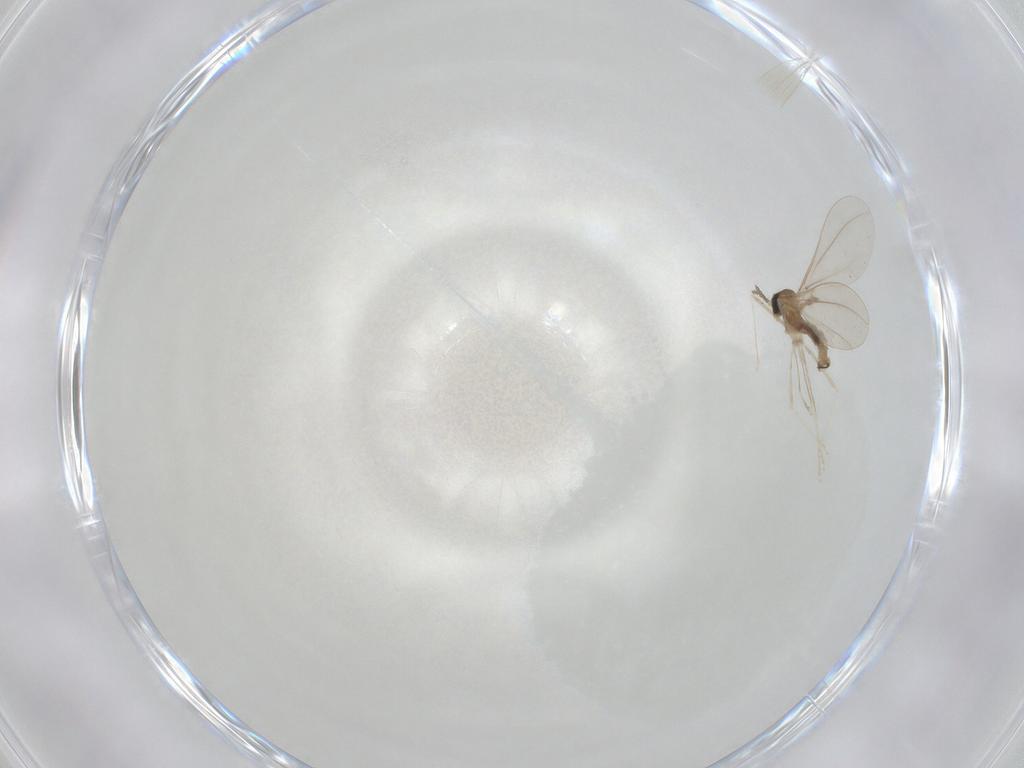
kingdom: Animalia
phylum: Arthropoda
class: Insecta
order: Diptera
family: Cecidomyiidae
